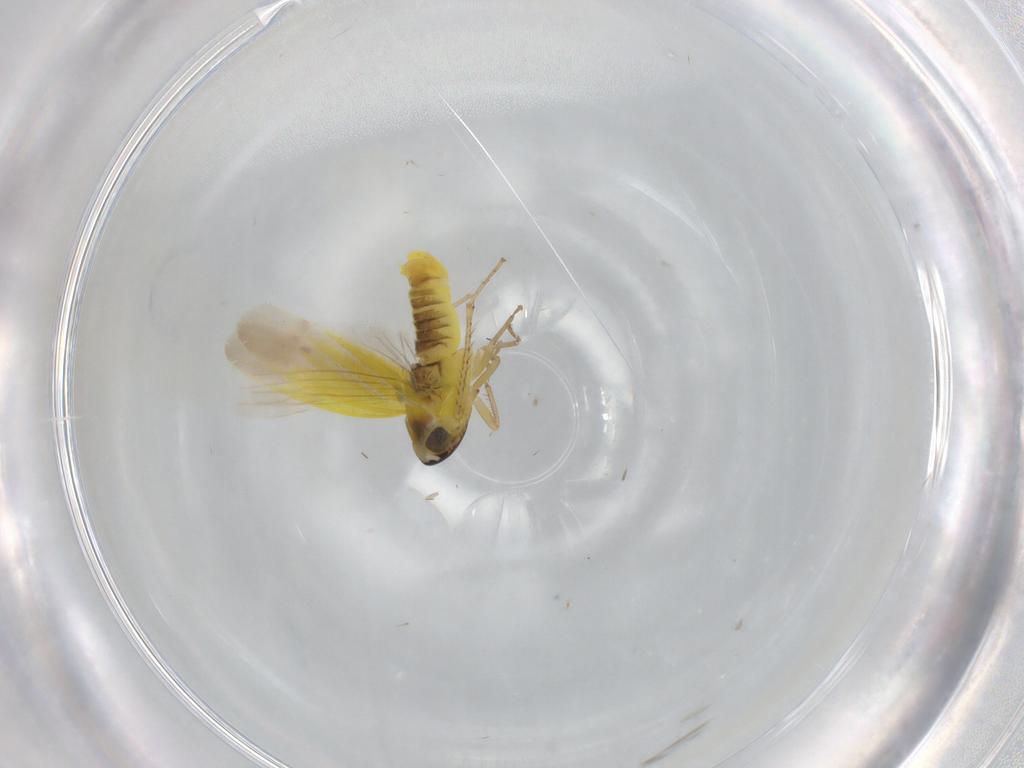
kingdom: Animalia
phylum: Arthropoda
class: Insecta
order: Hemiptera
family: Cicadellidae
